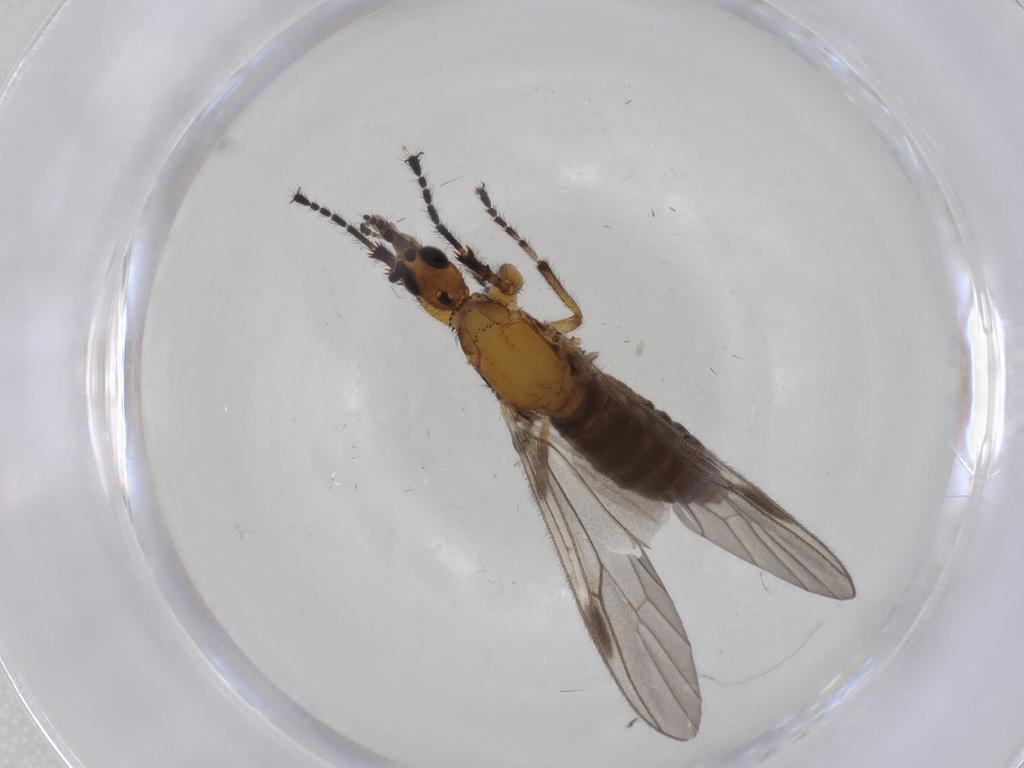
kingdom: Animalia
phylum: Arthropoda
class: Insecta
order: Diptera
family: Bibionidae
